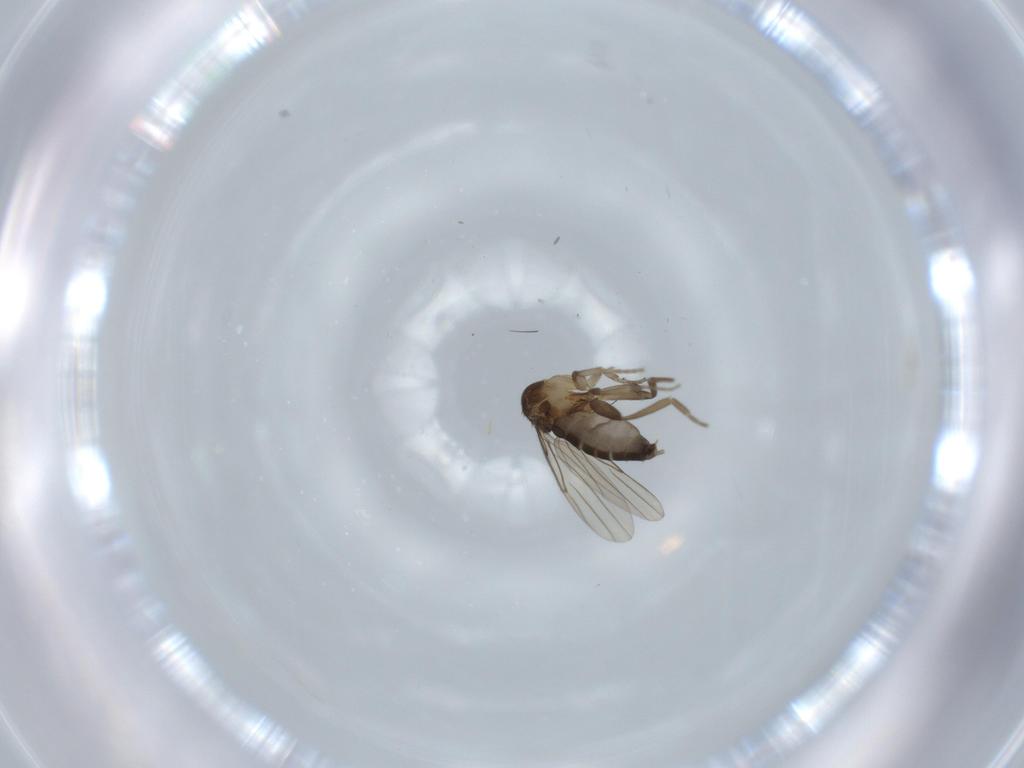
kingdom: Animalia
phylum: Arthropoda
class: Insecta
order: Diptera
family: Phoridae
